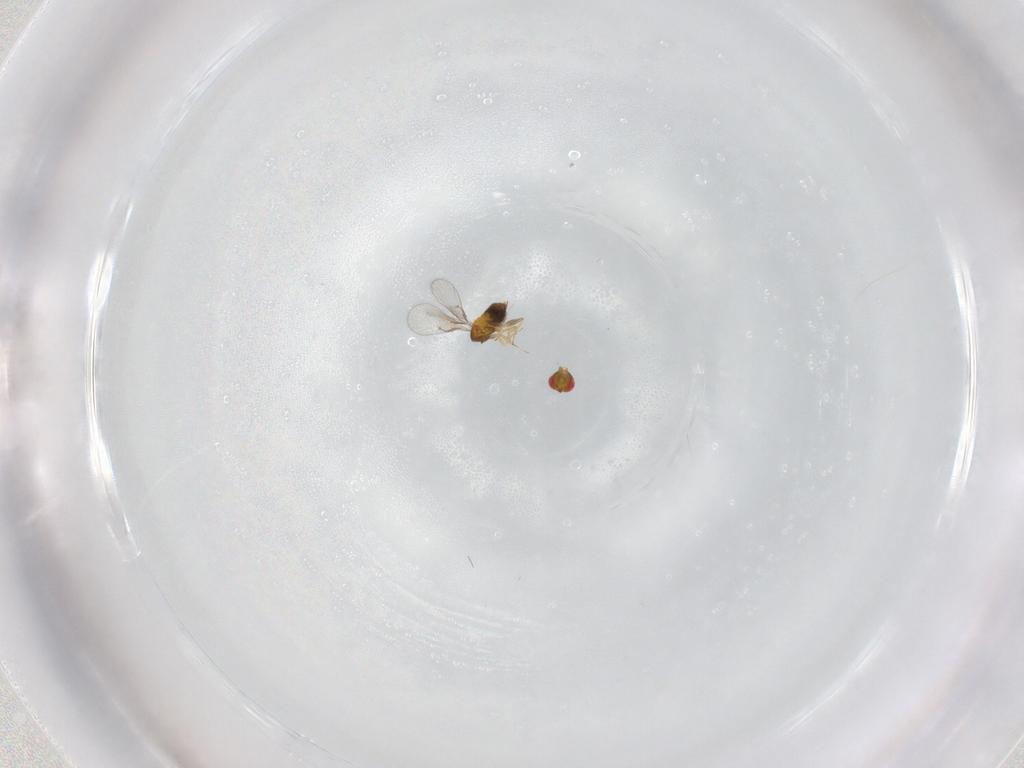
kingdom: Animalia
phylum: Arthropoda
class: Insecta
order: Hymenoptera
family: Trichogrammatidae
